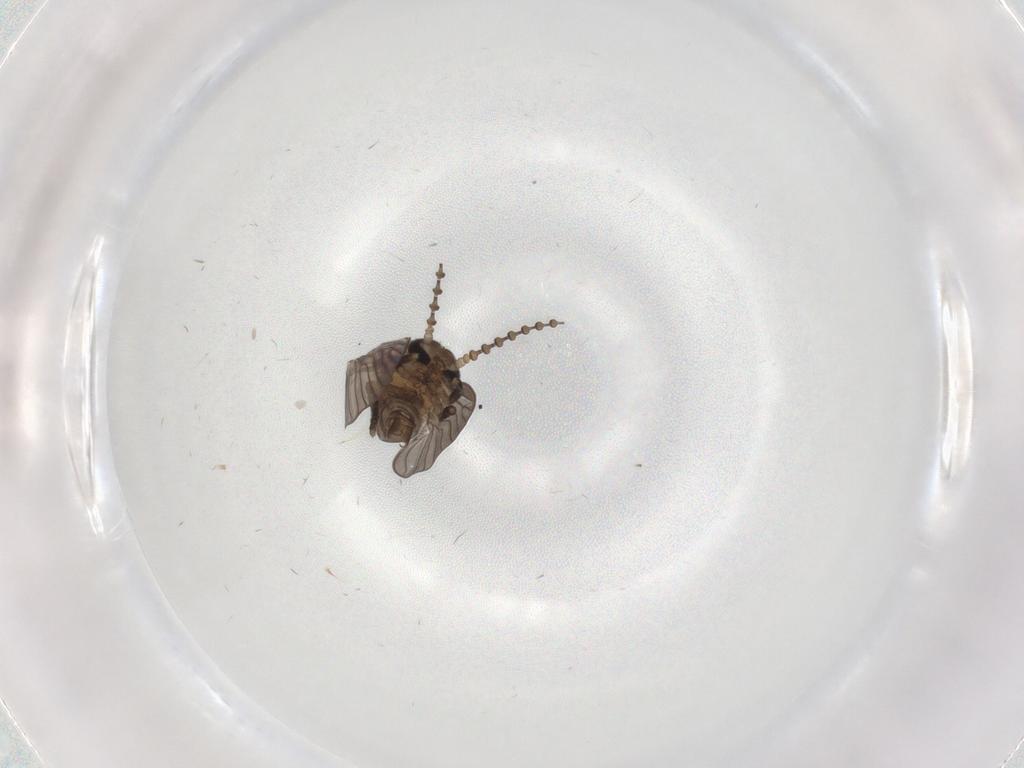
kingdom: Animalia
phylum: Arthropoda
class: Insecta
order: Diptera
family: Psychodidae
